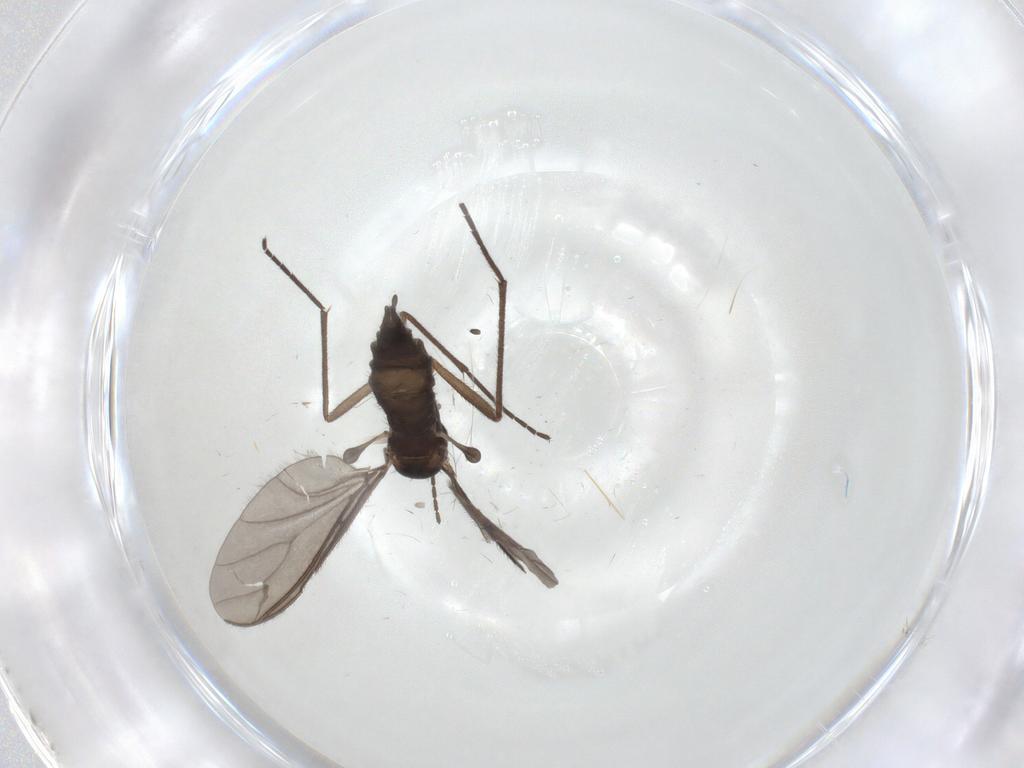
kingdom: Animalia
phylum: Arthropoda
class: Insecta
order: Diptera
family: Sciaridae
